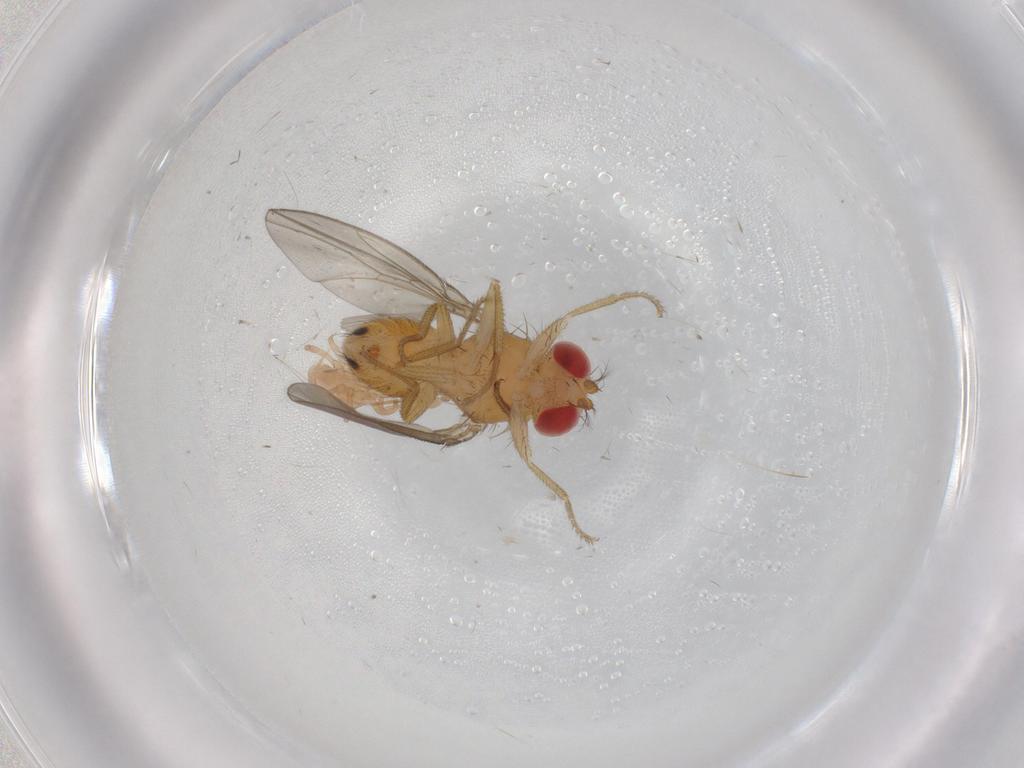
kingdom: Animalia
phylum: Arthropoda
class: Insecta
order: Diptera
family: Drosophilidae
